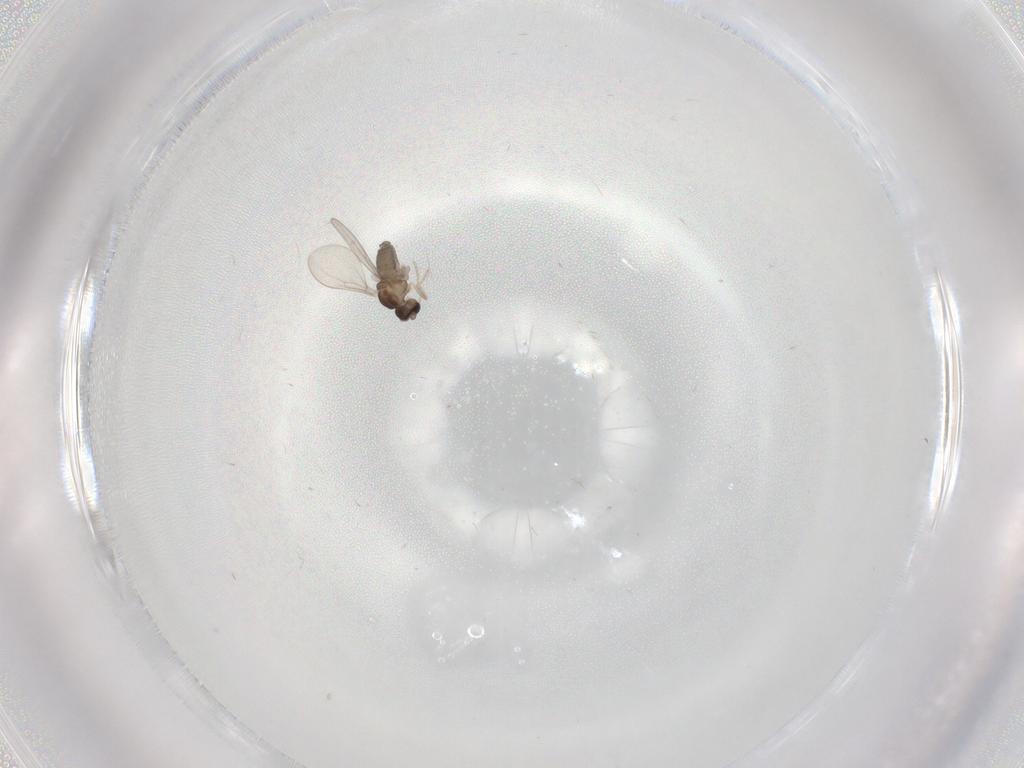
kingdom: Animalia
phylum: Arthropoda
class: Insecta
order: Diptera
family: Cecidomyiidae
